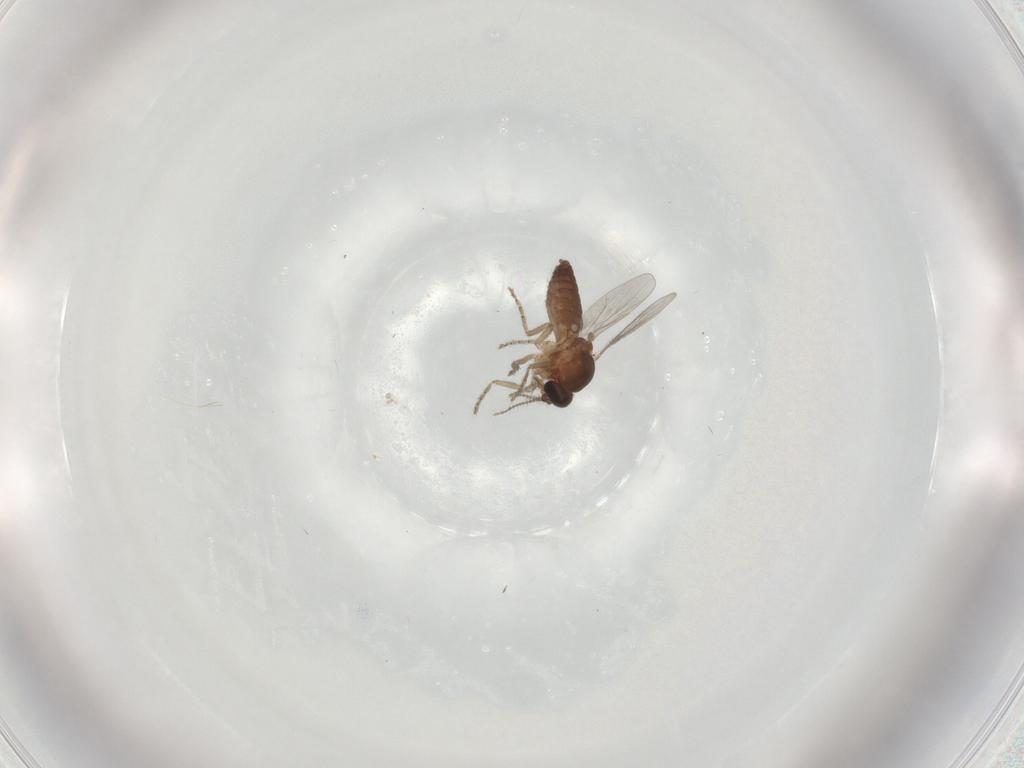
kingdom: Animalia
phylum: Arthropoda
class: Insecta
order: Diptera
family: Ceratopogonidae
